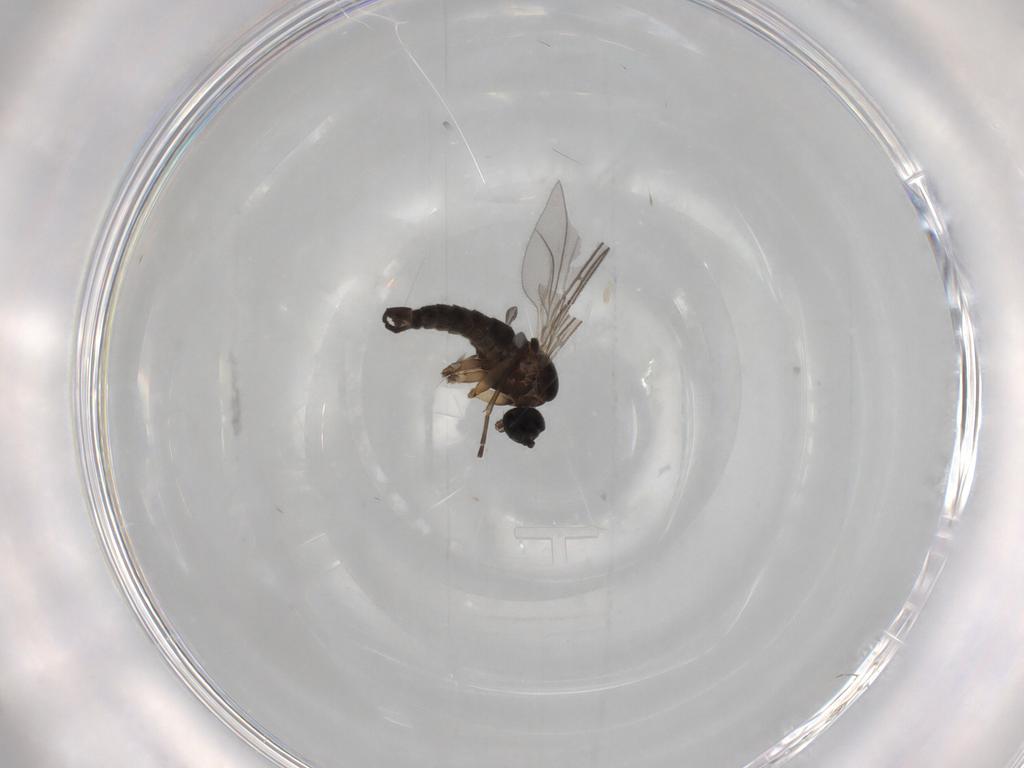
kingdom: Animalia
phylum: Arthropoda
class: Insecta
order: Diptera
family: Sciaridae
